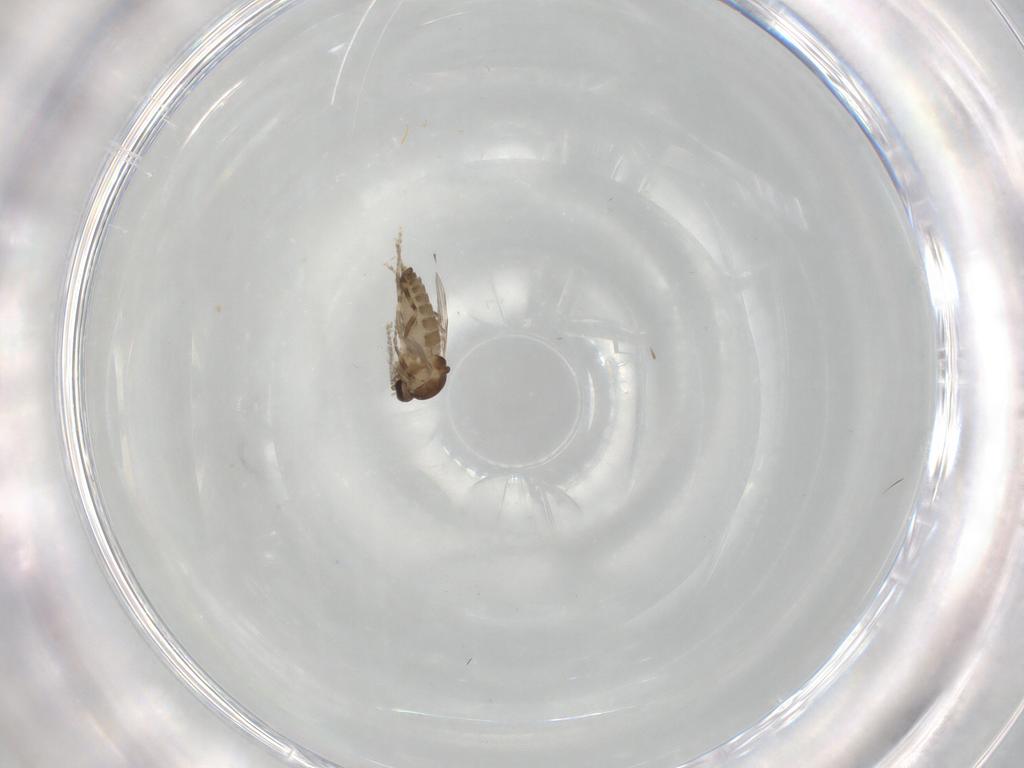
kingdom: Animalia
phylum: Arthropoda
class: Insecta
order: Diptera
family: Ceratopogonidae
